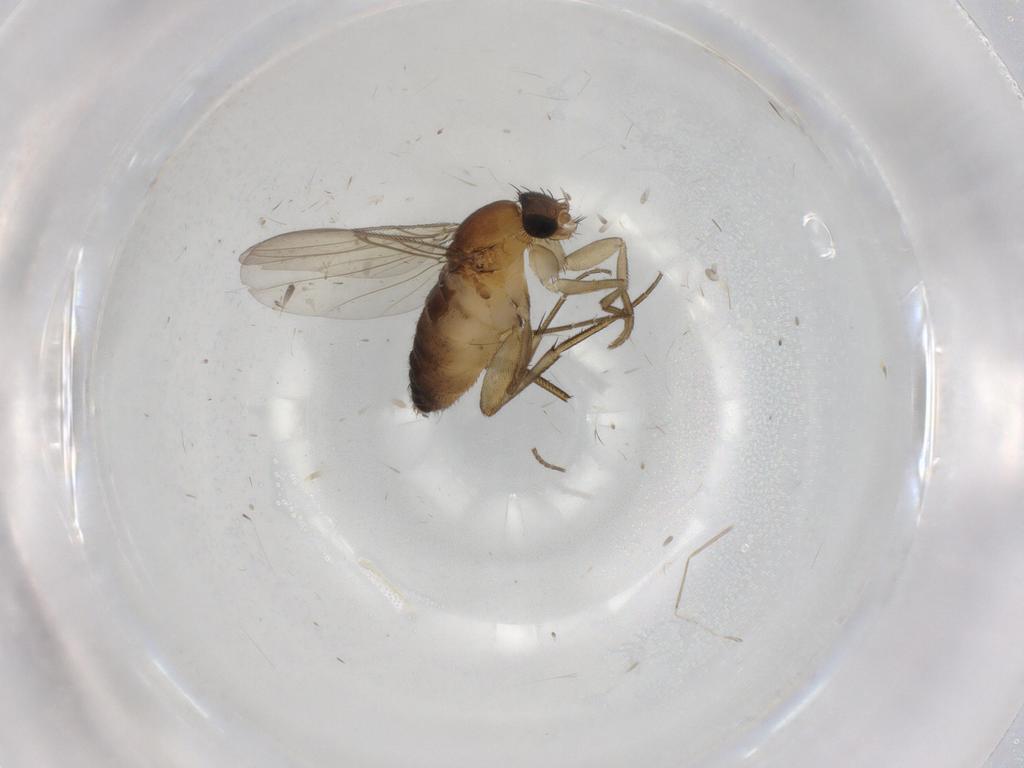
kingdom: Animalia
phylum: Arthropoda
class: Insecta
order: Diptera
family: Phoridae
